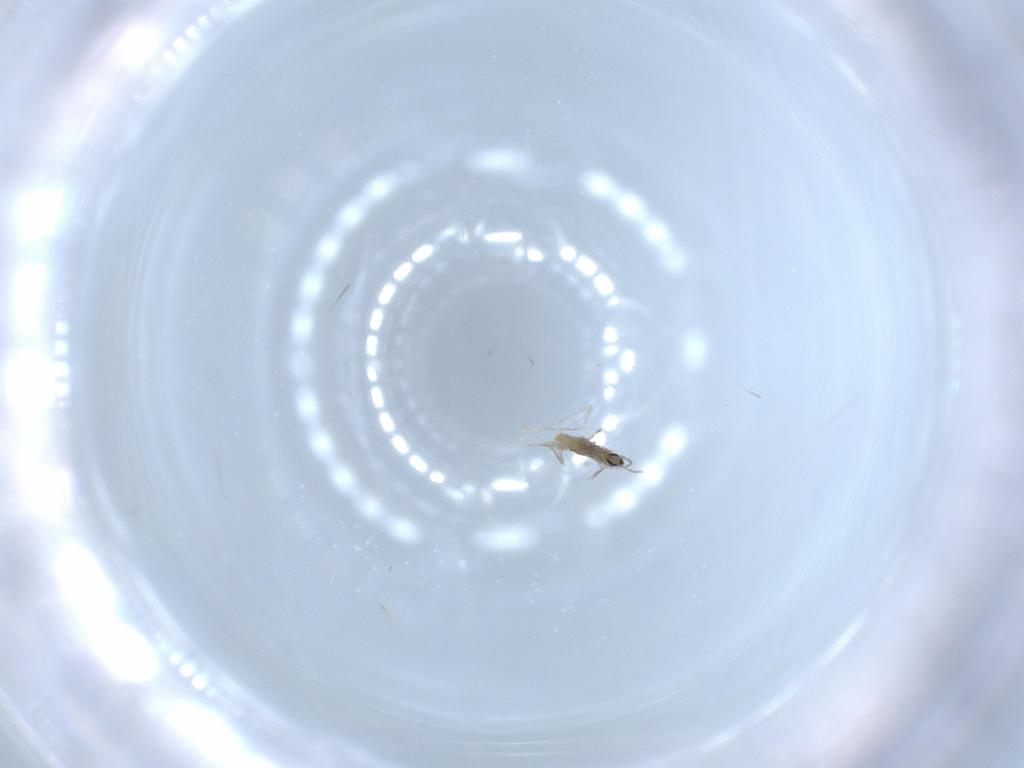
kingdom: Animalia
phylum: Arthropoda
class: Insecta
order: Diptera
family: Cecidomyiidae
